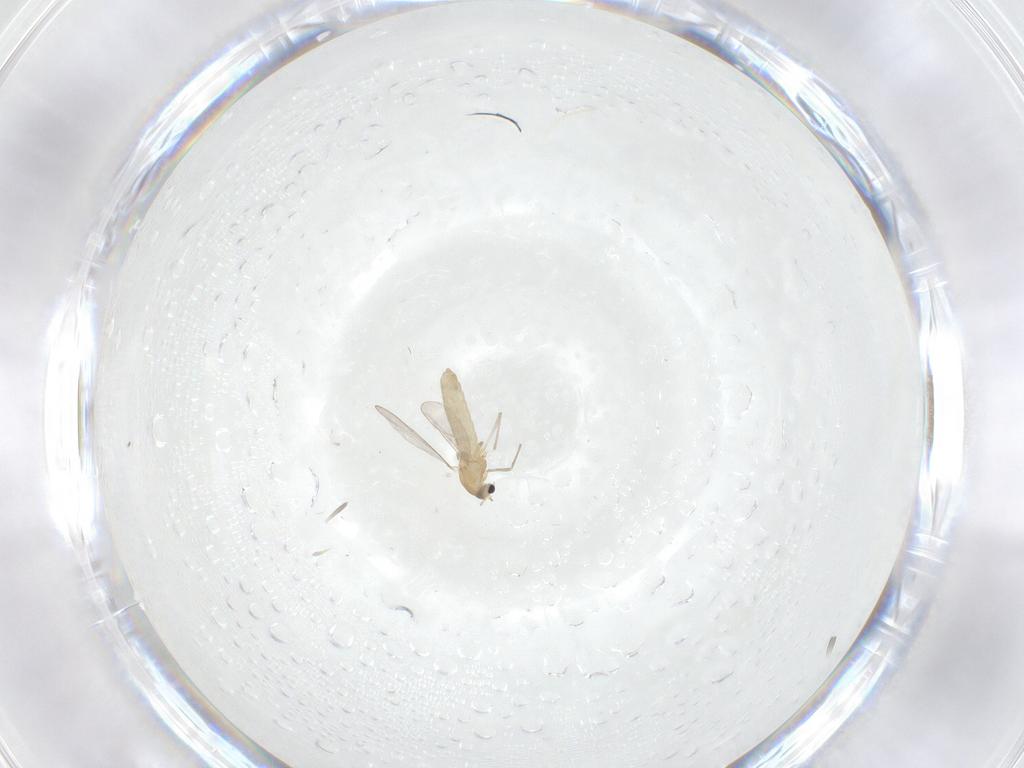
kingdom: Animalia
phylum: Arthropoda
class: Insecta
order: Diptera
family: Chironomidae
